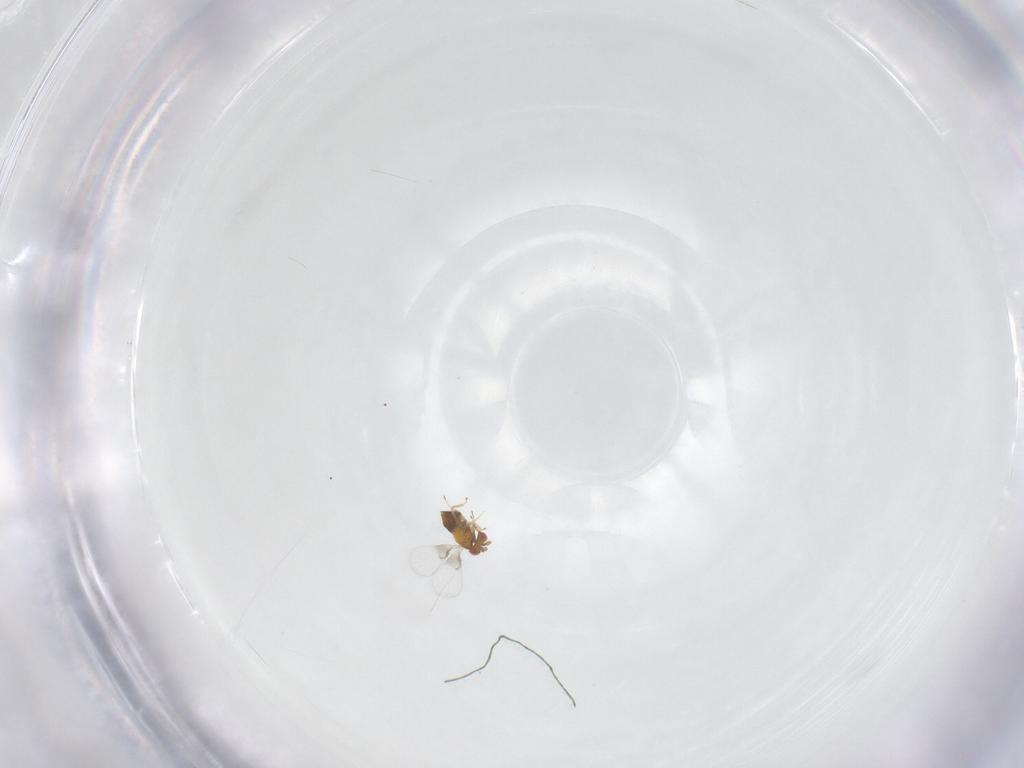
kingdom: Animalia
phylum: Arthropoda
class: Insecta
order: Hymenoptera
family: Trichogrammatidae
